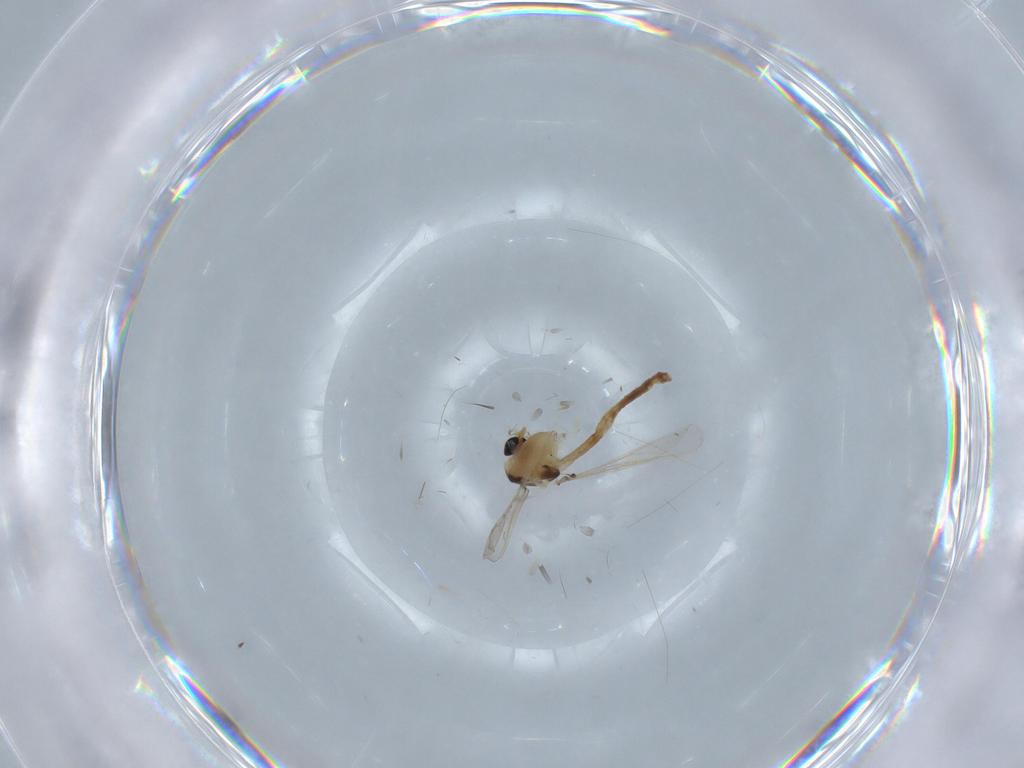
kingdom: Animalia
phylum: Arthropoda
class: Insecta
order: Diptera
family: Chironomidae
